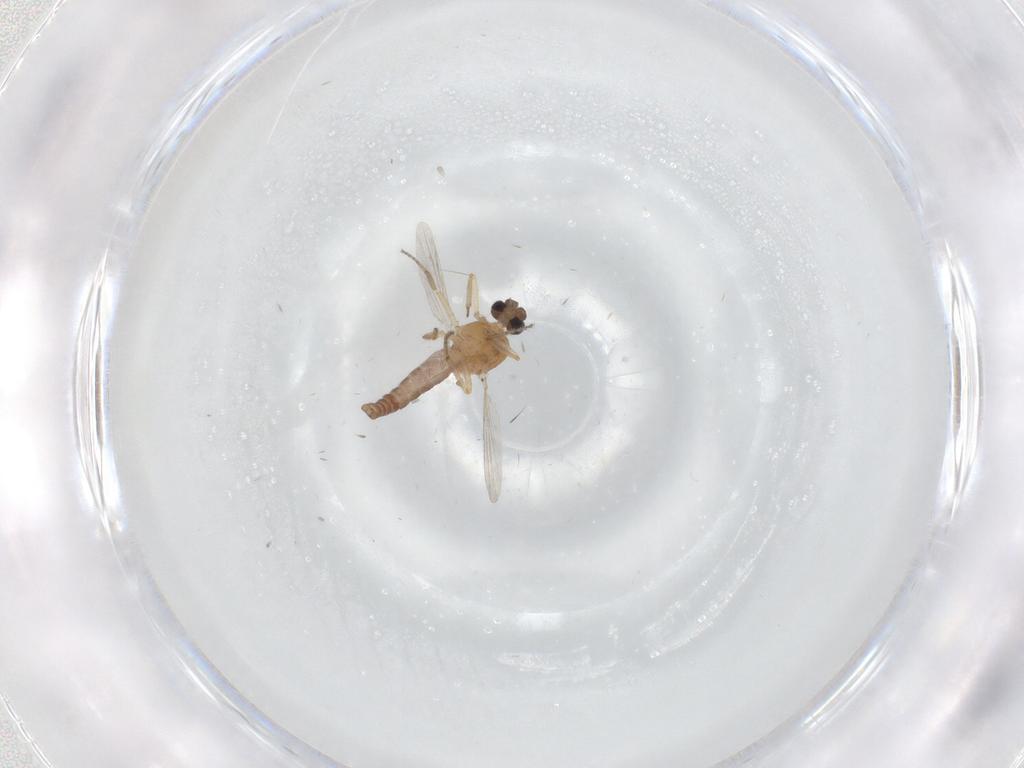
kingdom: Animalia
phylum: Arthropoda
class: Insecta
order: Diptera
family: Ceratopogonidae
